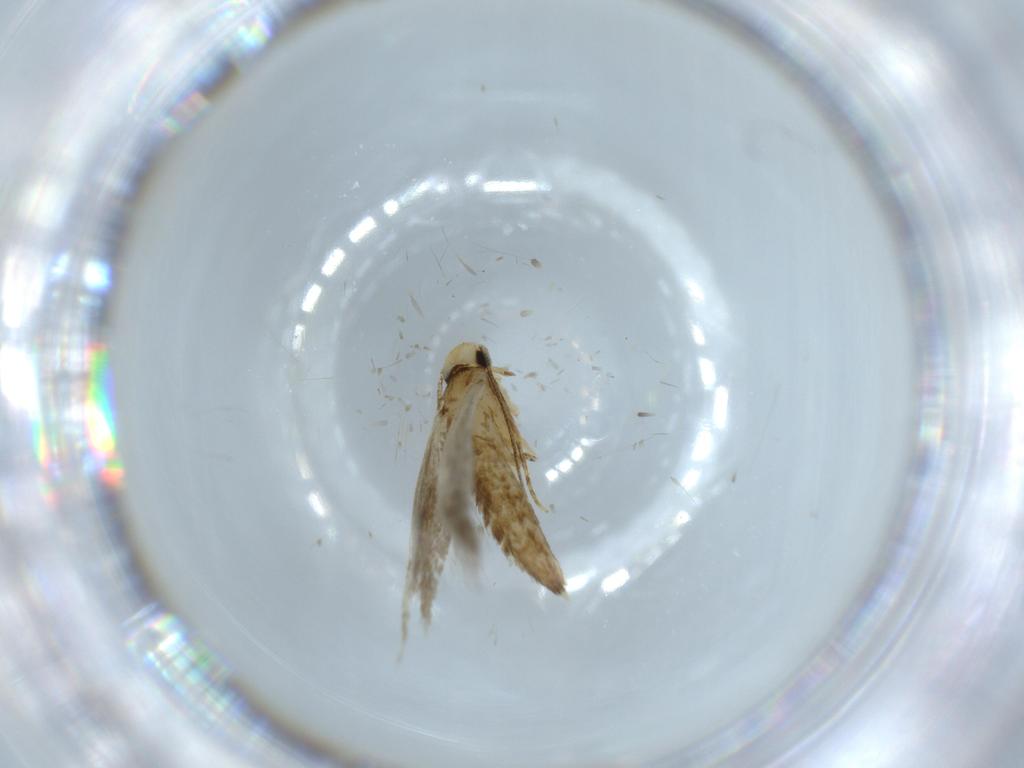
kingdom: Animalia
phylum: Arthropoda
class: Insecta
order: Lepidoptera
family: Tineidae
